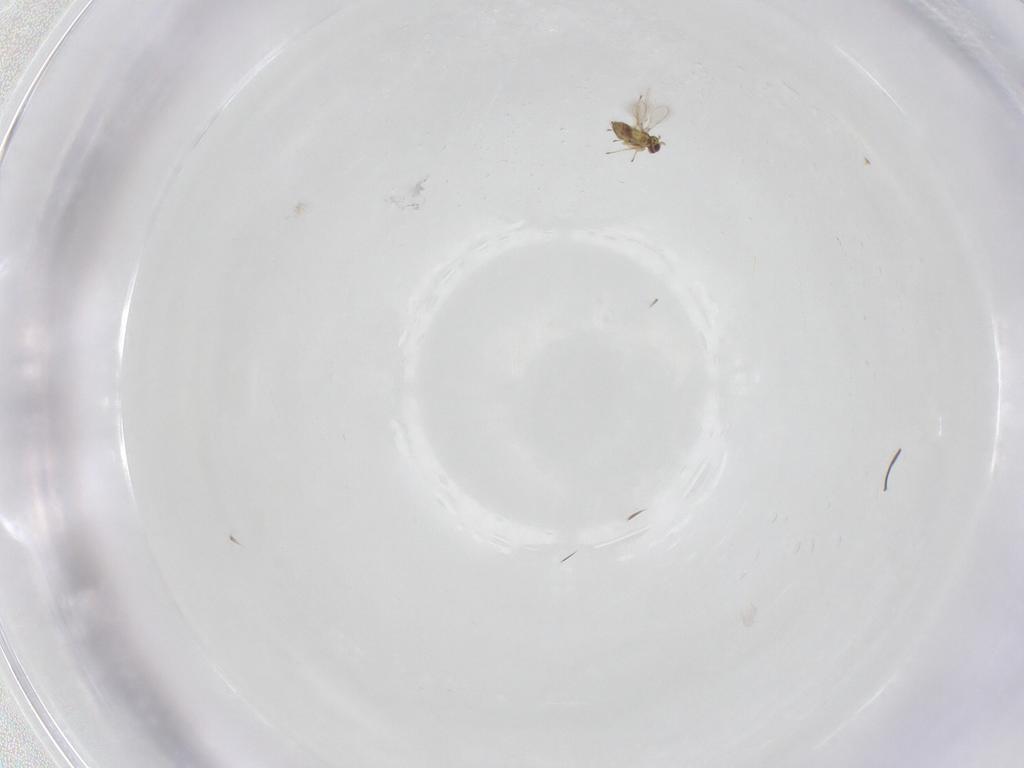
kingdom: Animalia
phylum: Arthropoda
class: Insecta
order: Hymenoptera
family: Mymaridae
